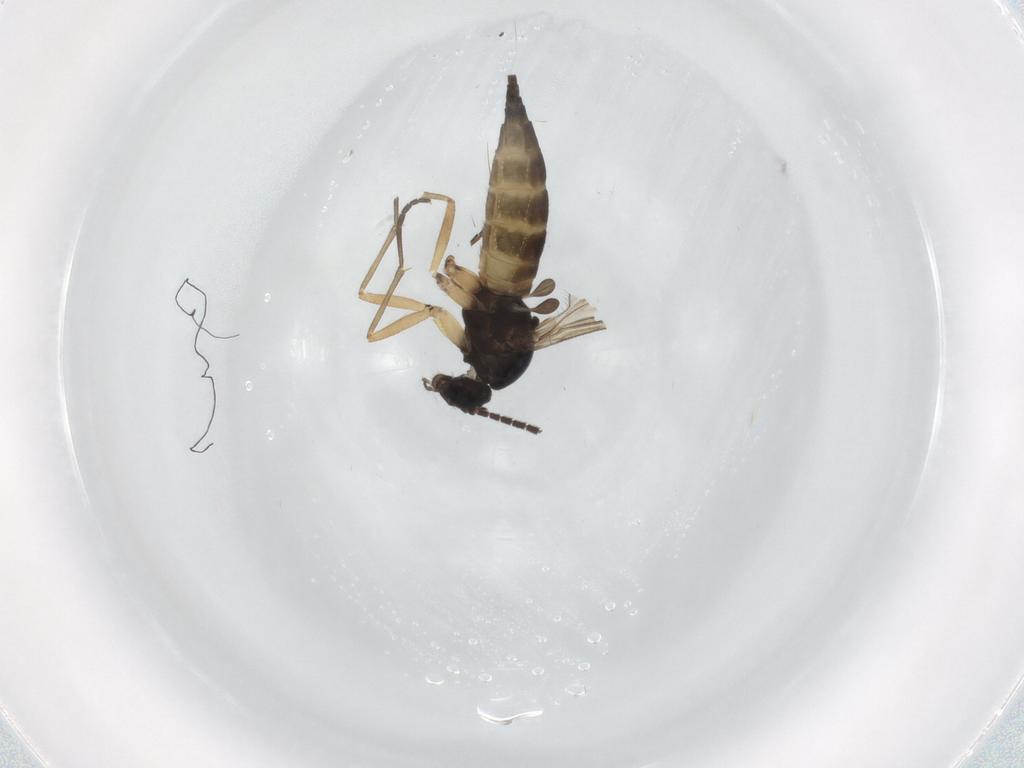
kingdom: Animalia
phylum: Arthropoda
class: Insecta
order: Diptera
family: Sciaridae
